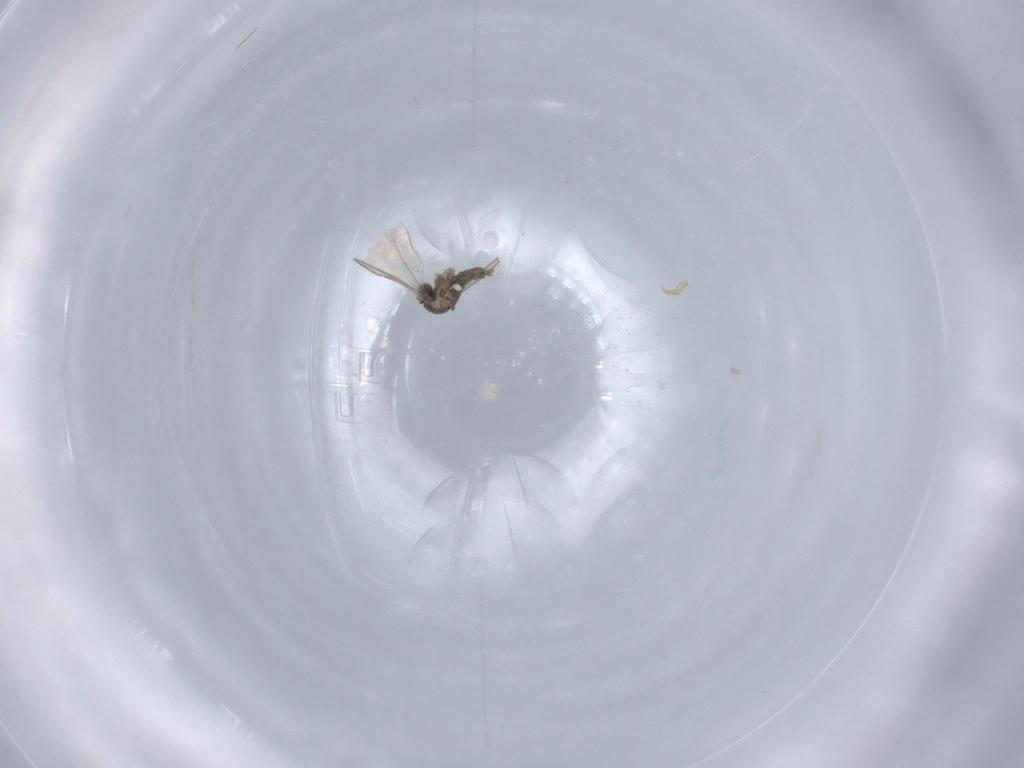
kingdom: Animalia
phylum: Arthropoda
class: Insecta
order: Diptera
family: Cecidomyiidae
